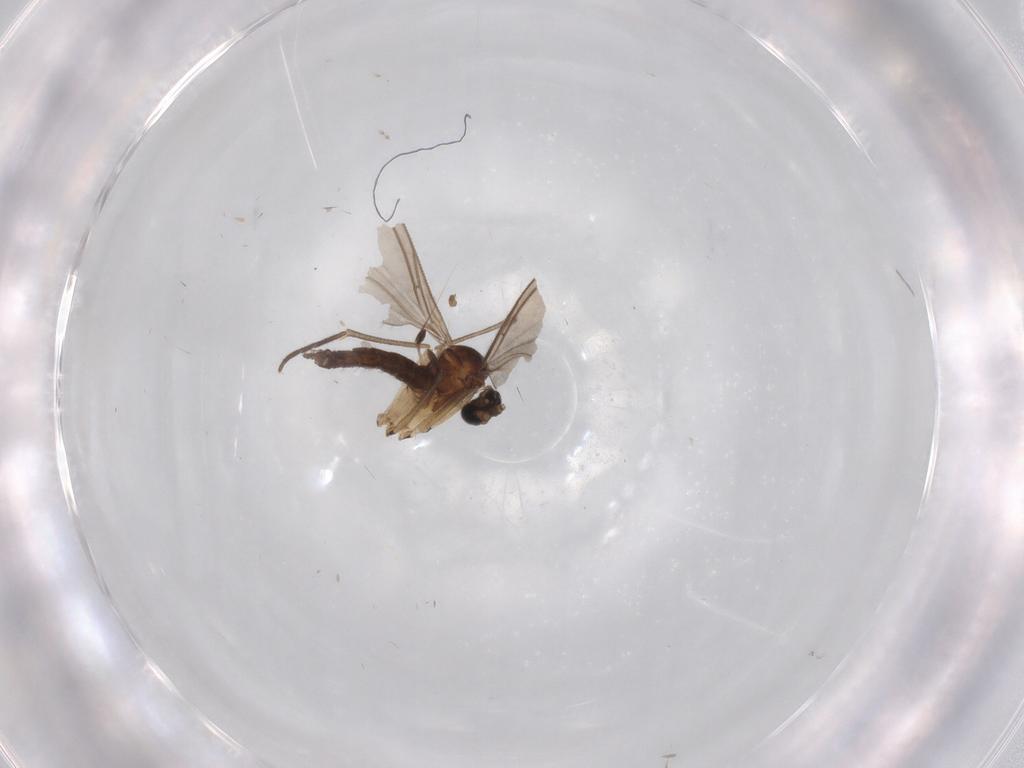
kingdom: Animalia
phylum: Arthropoda
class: Insecta
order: Diptera
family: Sciaridae
